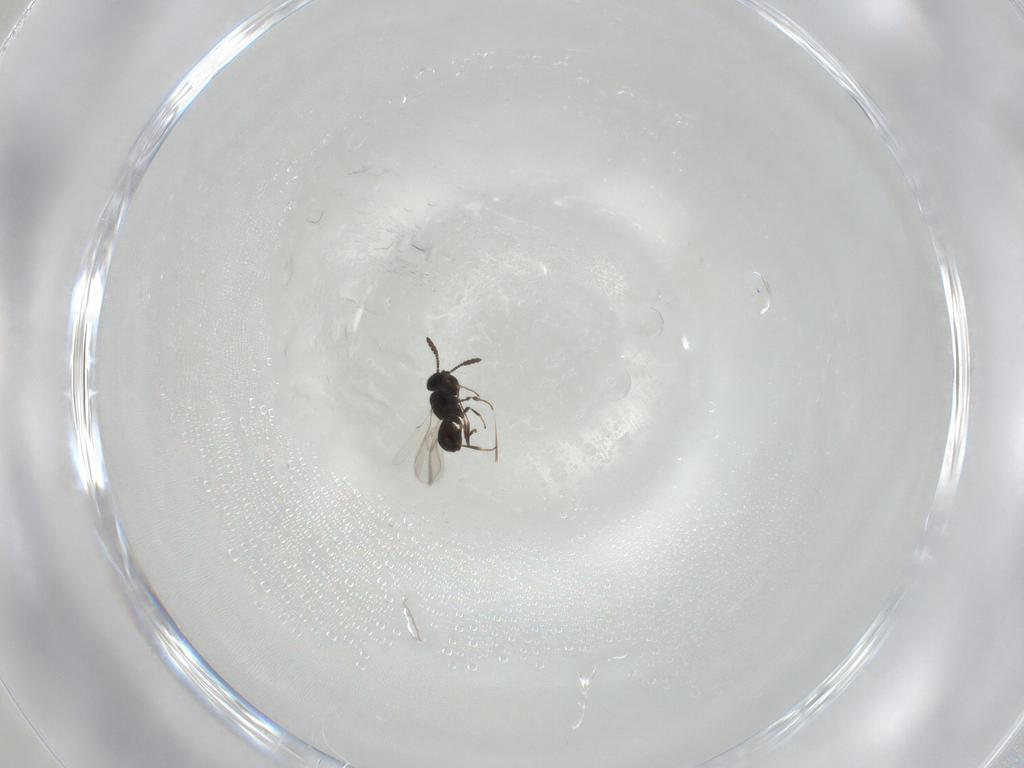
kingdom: Animalia
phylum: Arthropoda
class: Insecta
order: Hymenoptera
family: Scelionidae
